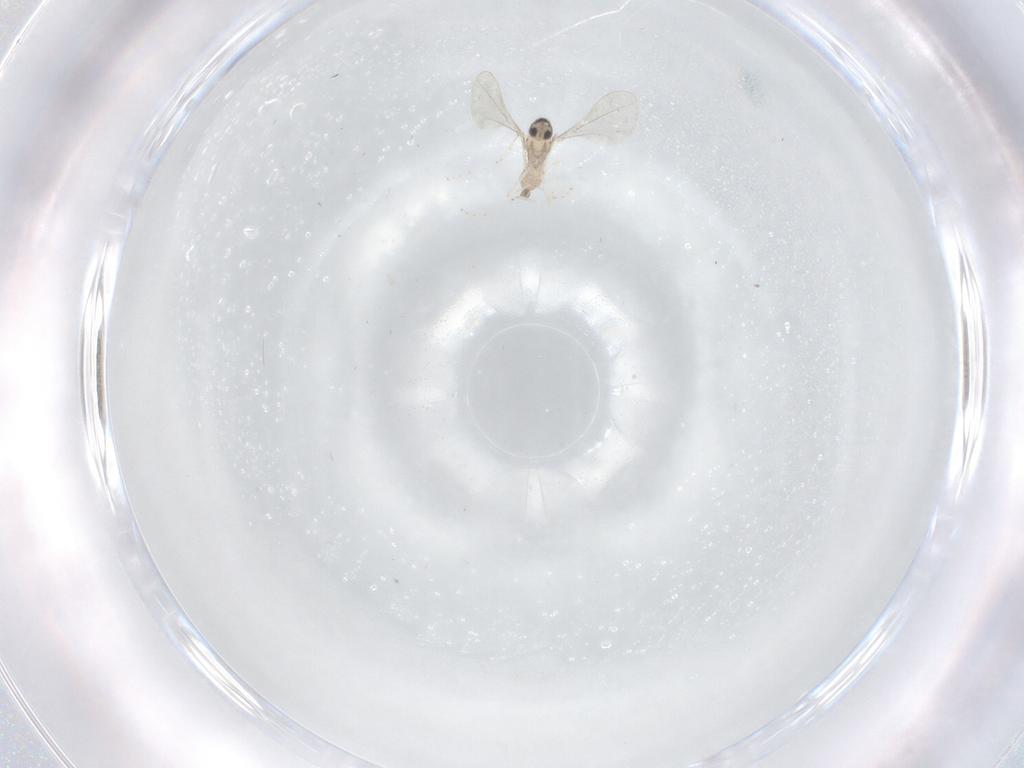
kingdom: Animalia
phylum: Arthropoda
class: Insecta
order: Diptera
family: Cecidomyiidae
